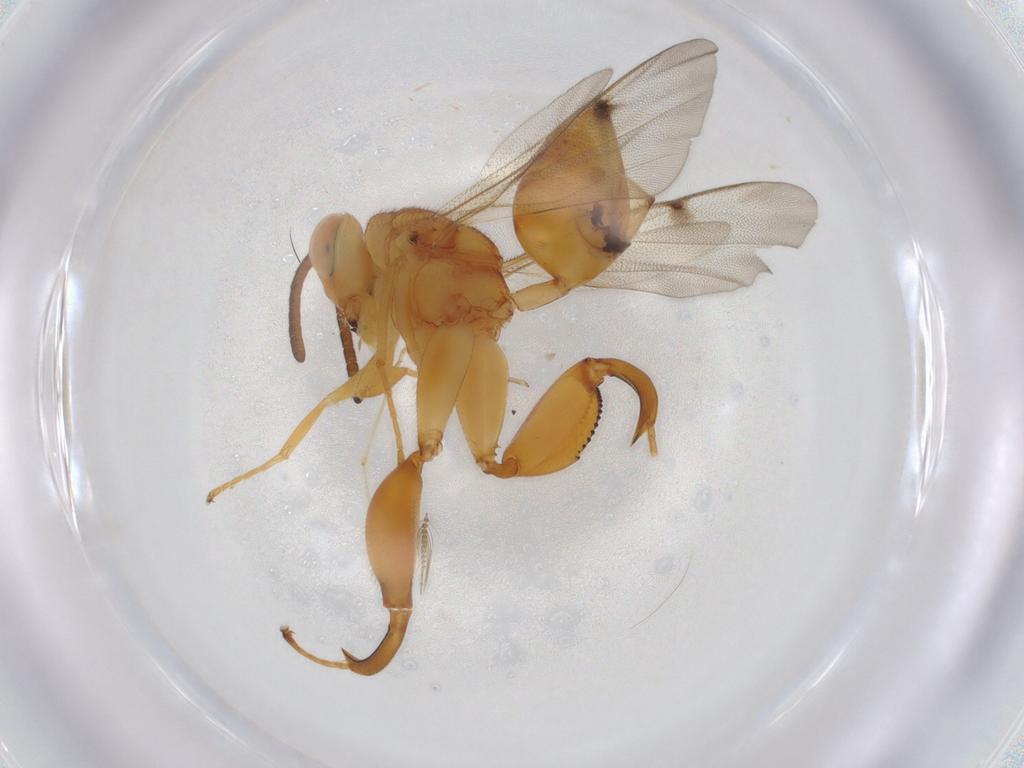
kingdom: Animalia
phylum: Arthropoda
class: Insecta
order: Hymenoptera
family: Chalcididae
